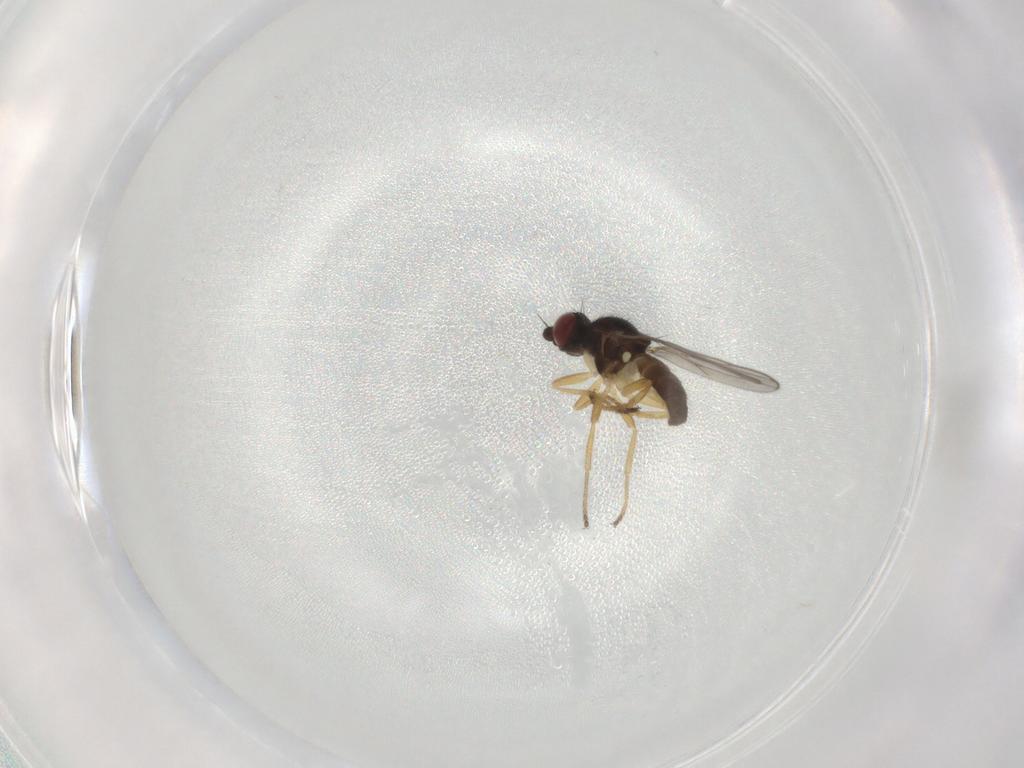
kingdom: Animalia
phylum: Arthropoda
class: Insecta
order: Diptera
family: Chloropidae
